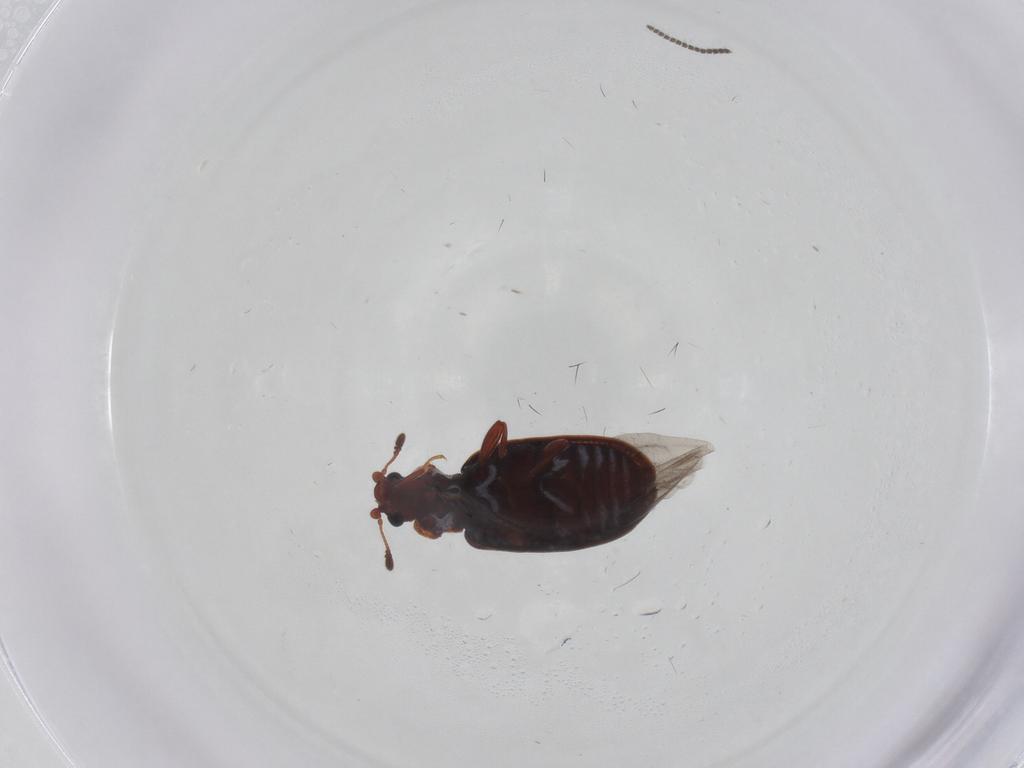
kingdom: Animalia
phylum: Arthropoda
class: Insecta
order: Coleoptera
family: Latridiidae
